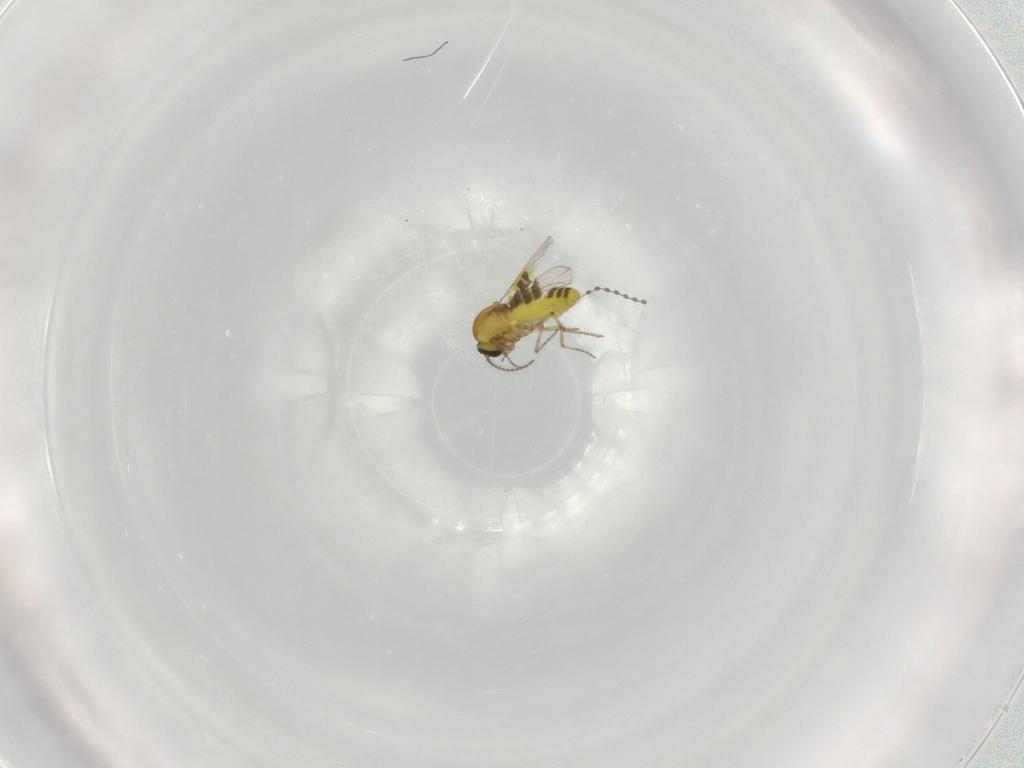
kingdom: Animalia
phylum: Arthropoda
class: Insecta
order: Diptera
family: Ceratopogonidae
